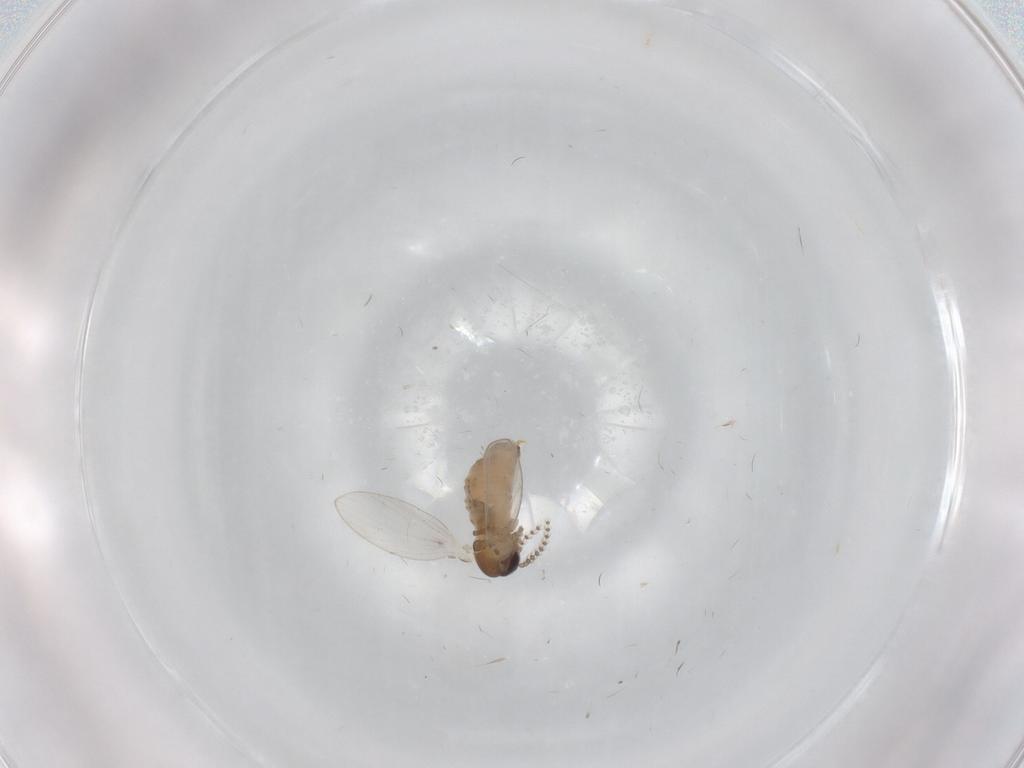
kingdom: Animalia
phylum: Arthropoda
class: Insecta
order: Diptera
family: Psychodidae
